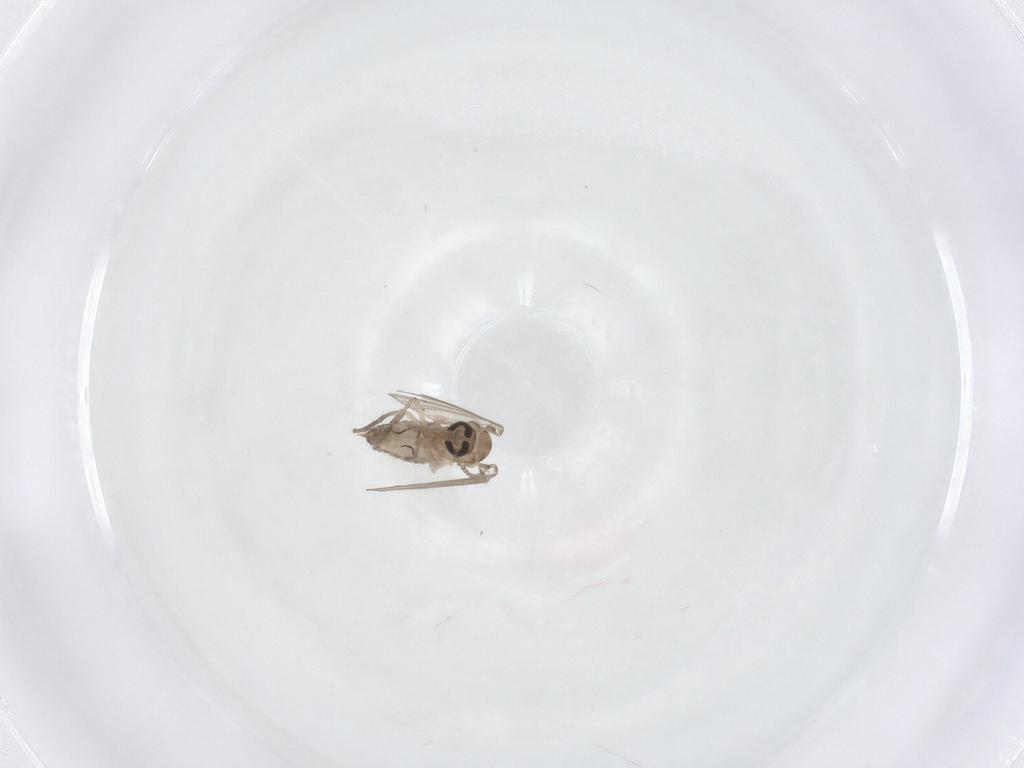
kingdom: Animalia
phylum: Arthropoda
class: Insecta
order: Diptera
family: Psychodidae
